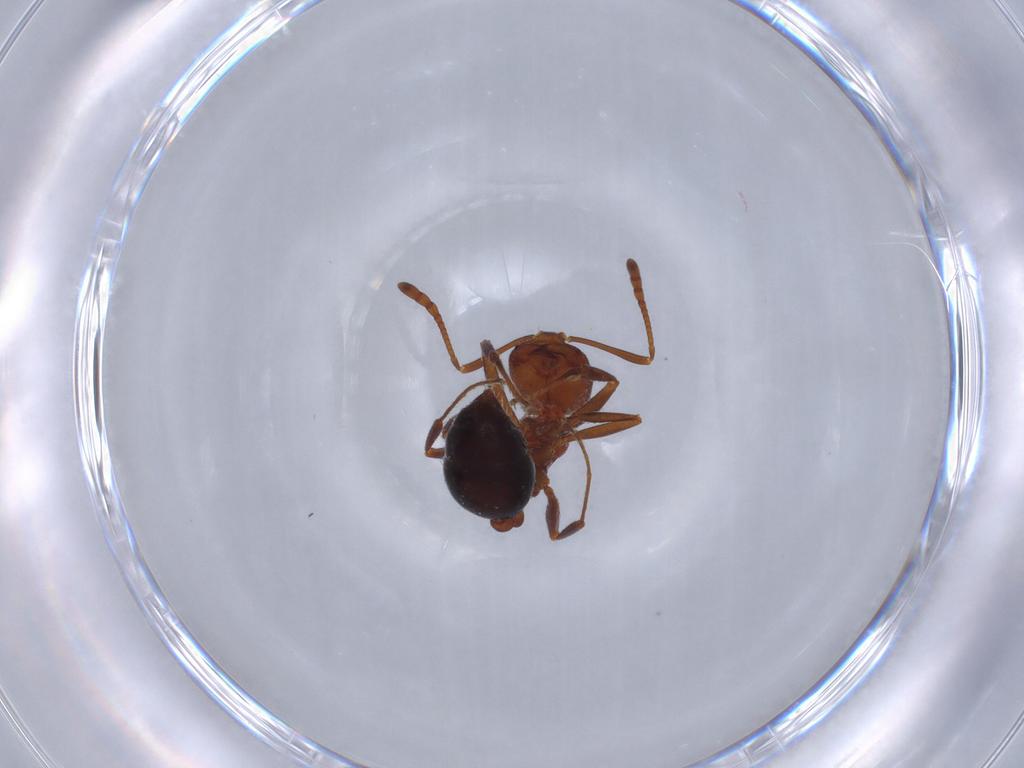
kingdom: Animalia
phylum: Arthropoda
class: Insecta
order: Hymenoptera
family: Formicidae
